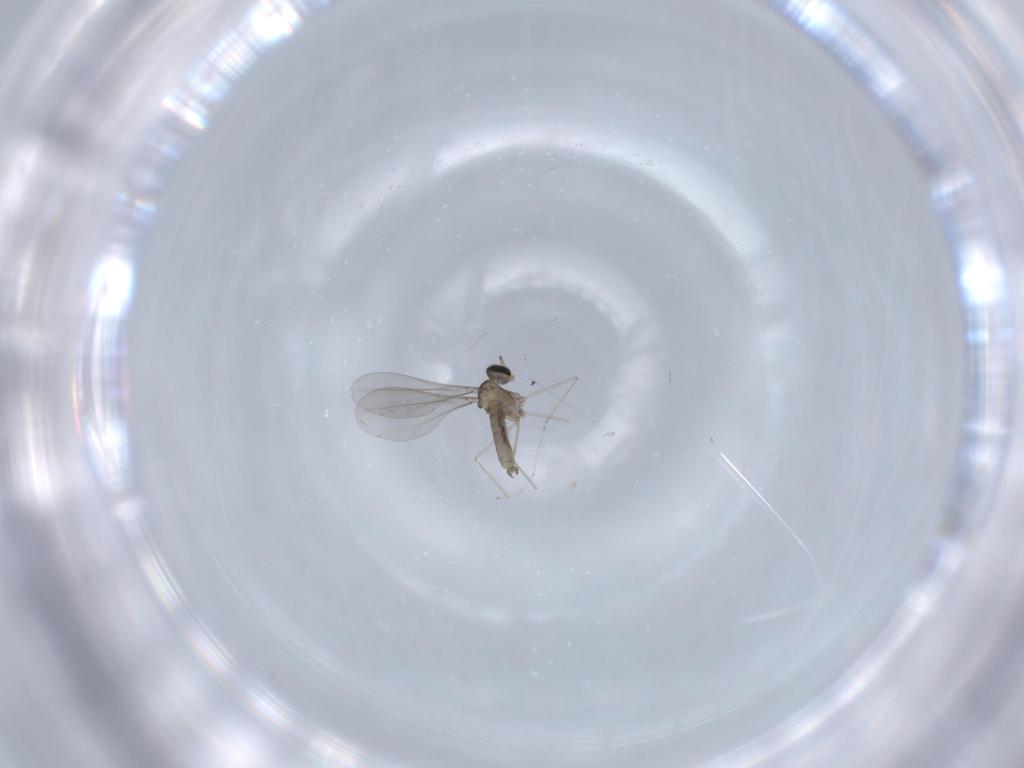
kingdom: Animalia
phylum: Arthropoda
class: Insecta
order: Diptera
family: Cecidomyiidae
